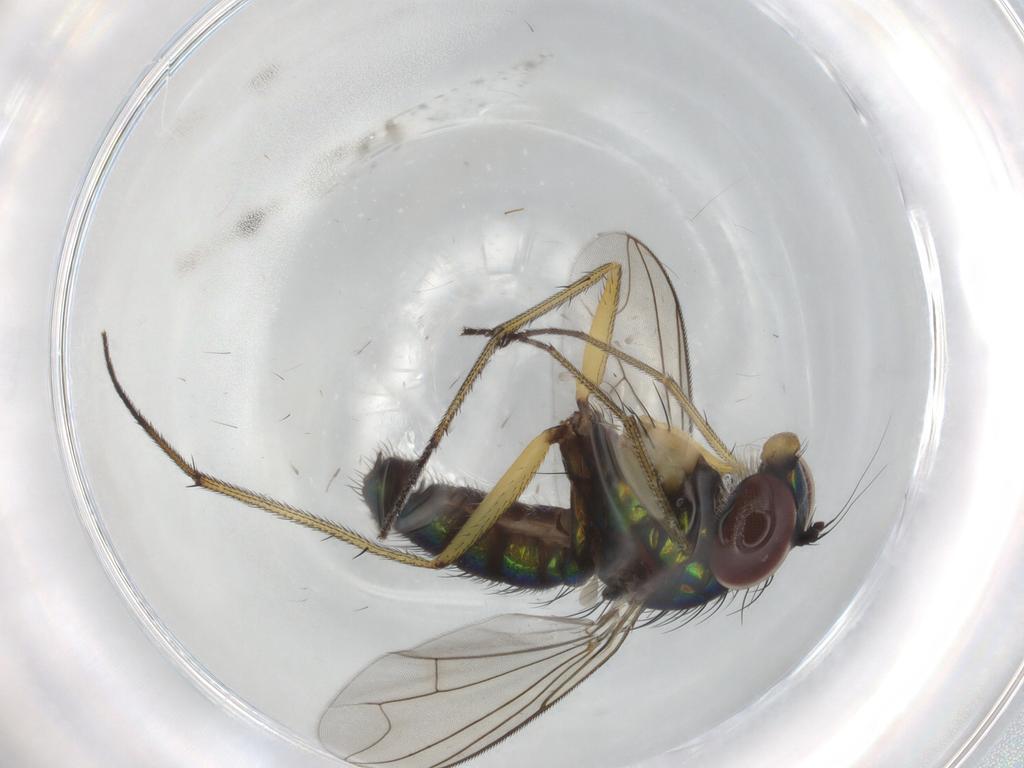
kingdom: Animalia
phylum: Arthropoda
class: Insecta
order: Diptera
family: Dolichopodidae
